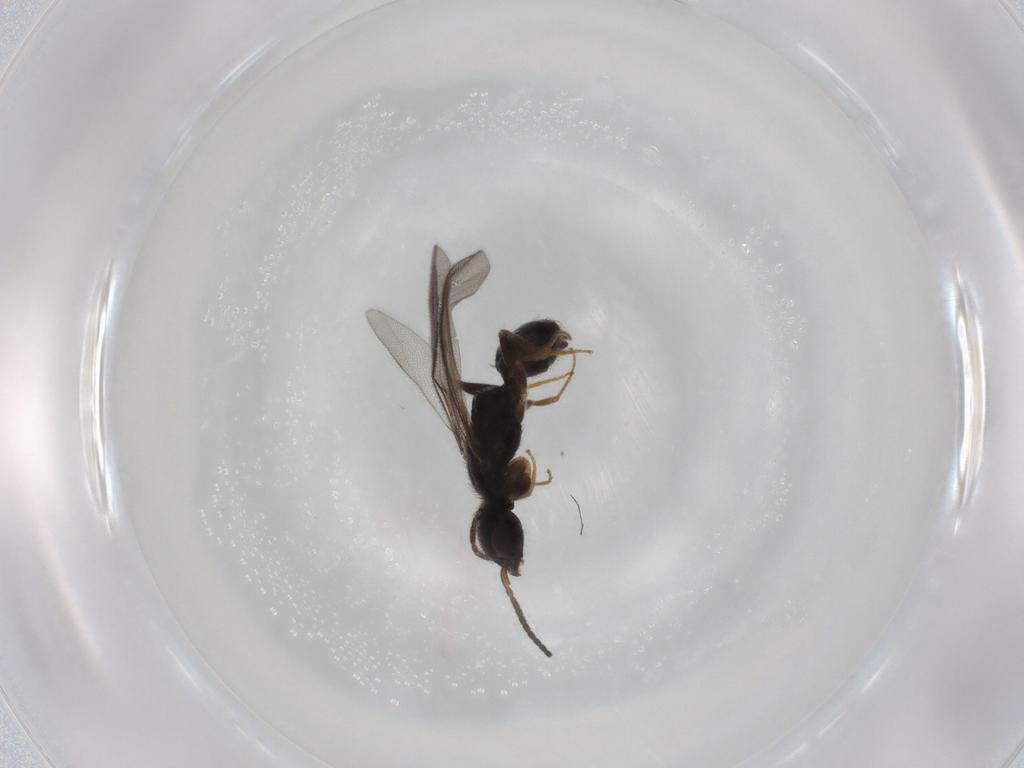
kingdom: Animalia
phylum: Arthropoda
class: Insecta
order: Hymenoptera
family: Bethylidae
